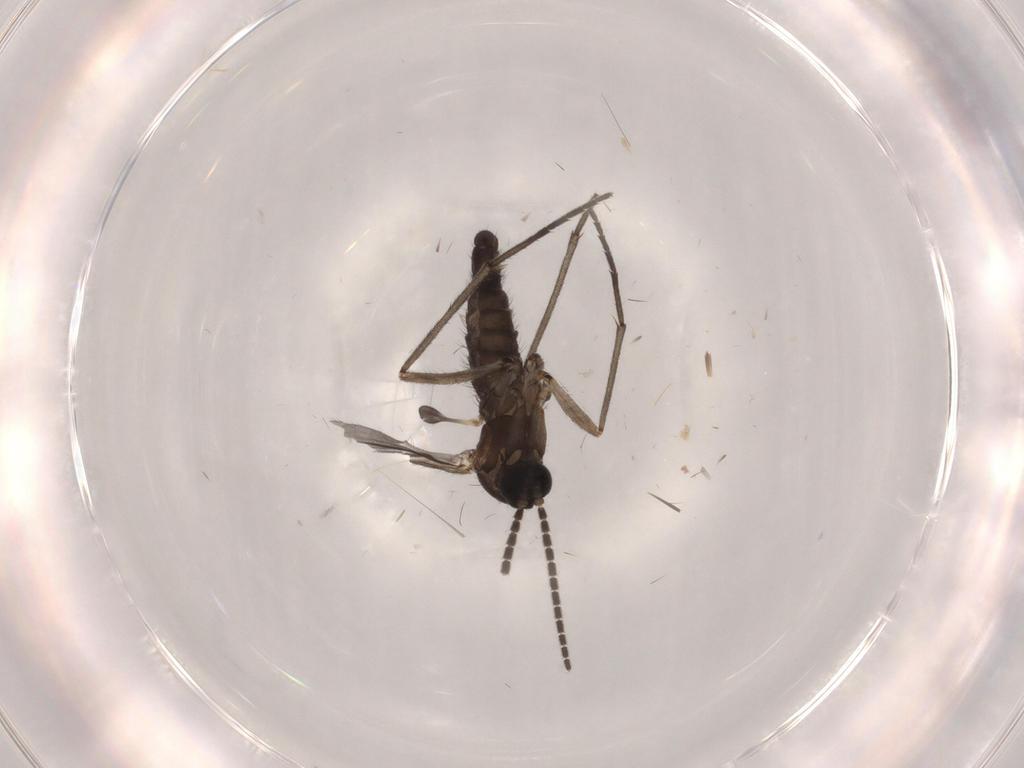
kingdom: Animalia
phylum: Arthropoda
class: Insecta
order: Diptera
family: Sciaridae
